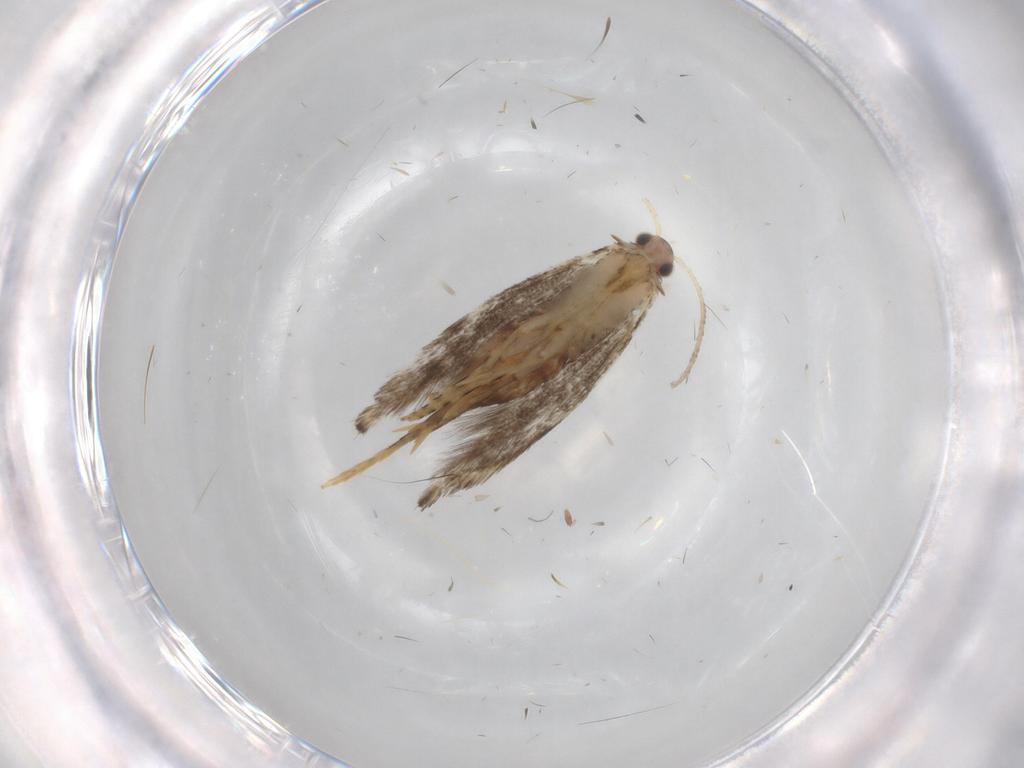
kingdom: Animalia
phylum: Arthropoda
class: Insecta
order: Lepidoptera
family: Tineidae
